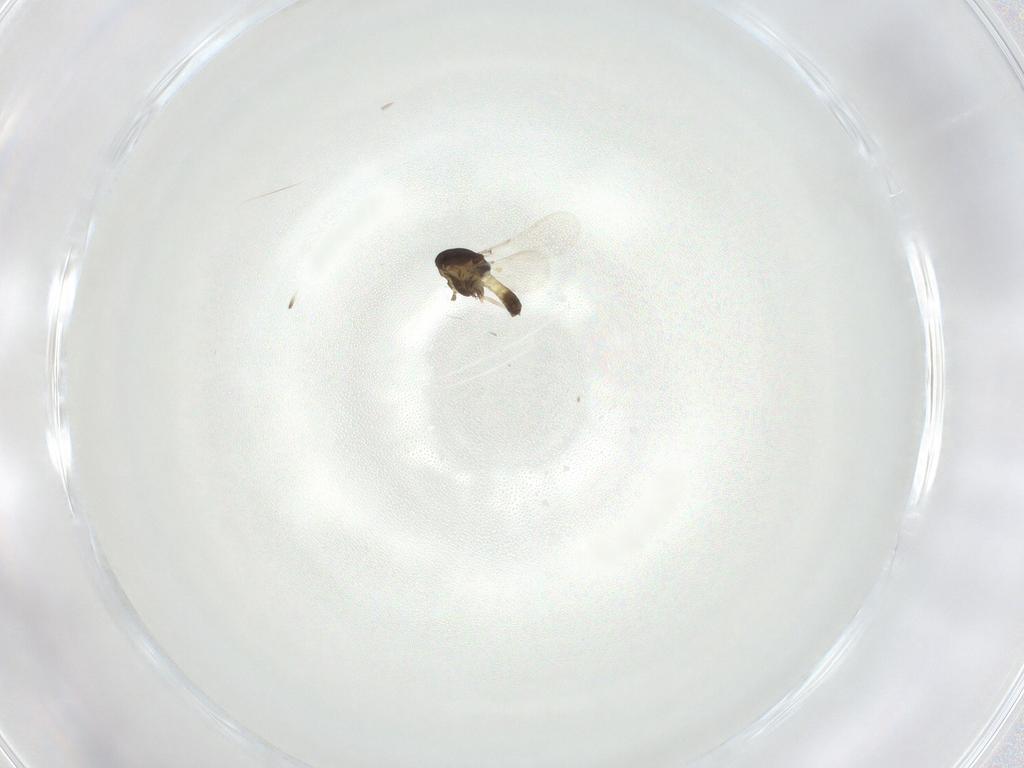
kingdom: Animalia
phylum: Arthropoda
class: Insecta
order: Diptera
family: Chironomidae
